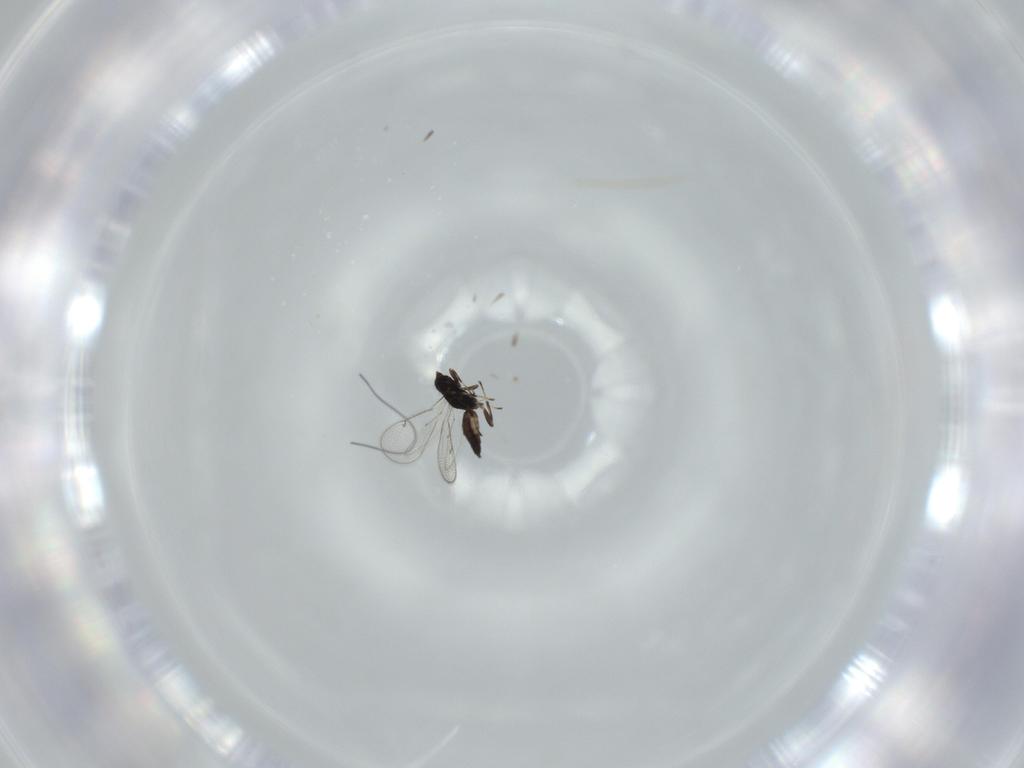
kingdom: Animalia
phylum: Arthropoda
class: Insecta
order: Hymenoptera
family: Eulophidae
